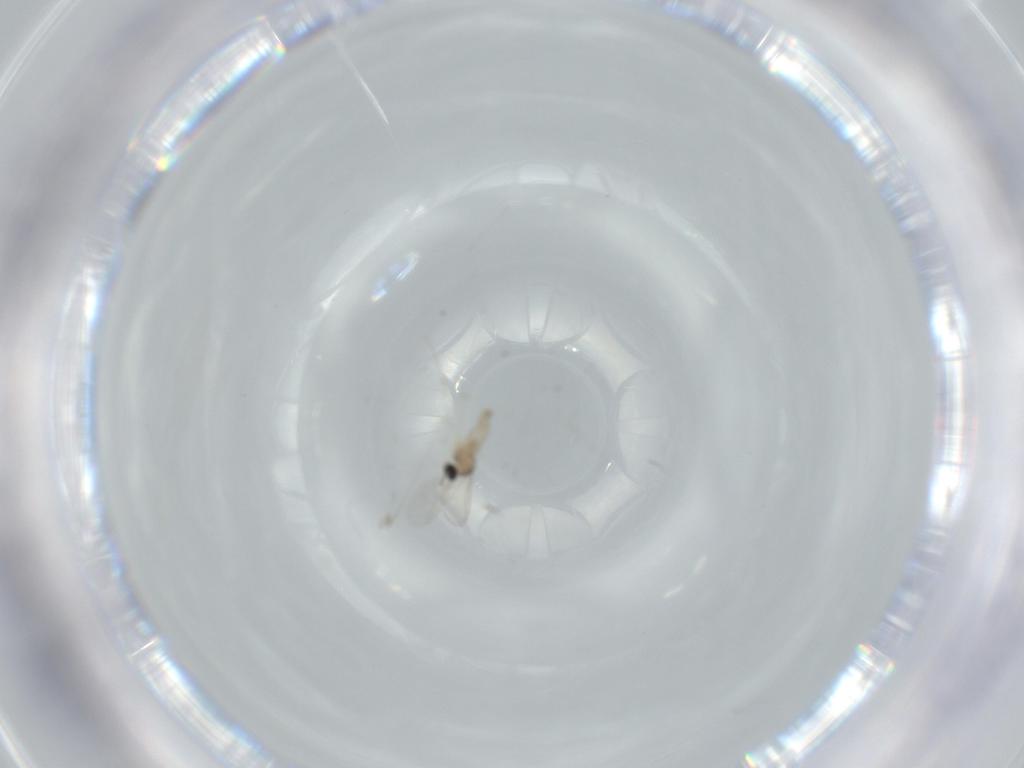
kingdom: Animalia
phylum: Arthropoda
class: Insecta
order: Diptera
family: Cecidomyiidae
